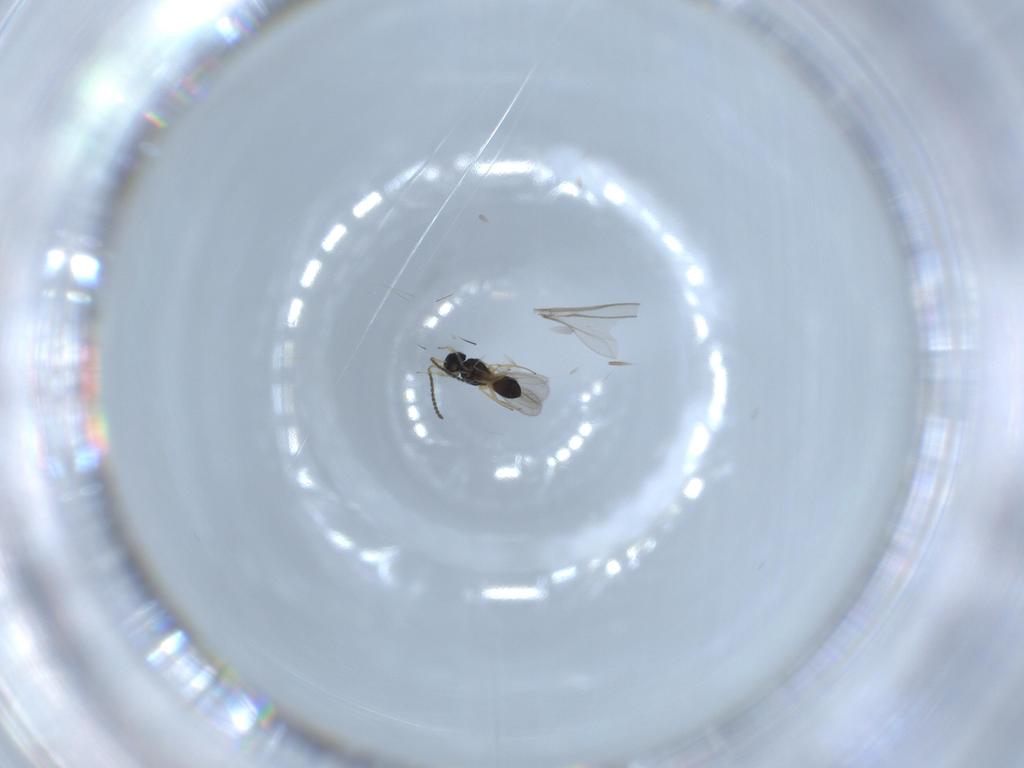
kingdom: Animalia
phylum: Arthropoda
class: Insecta
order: Hymenoptera
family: Scelionidae
